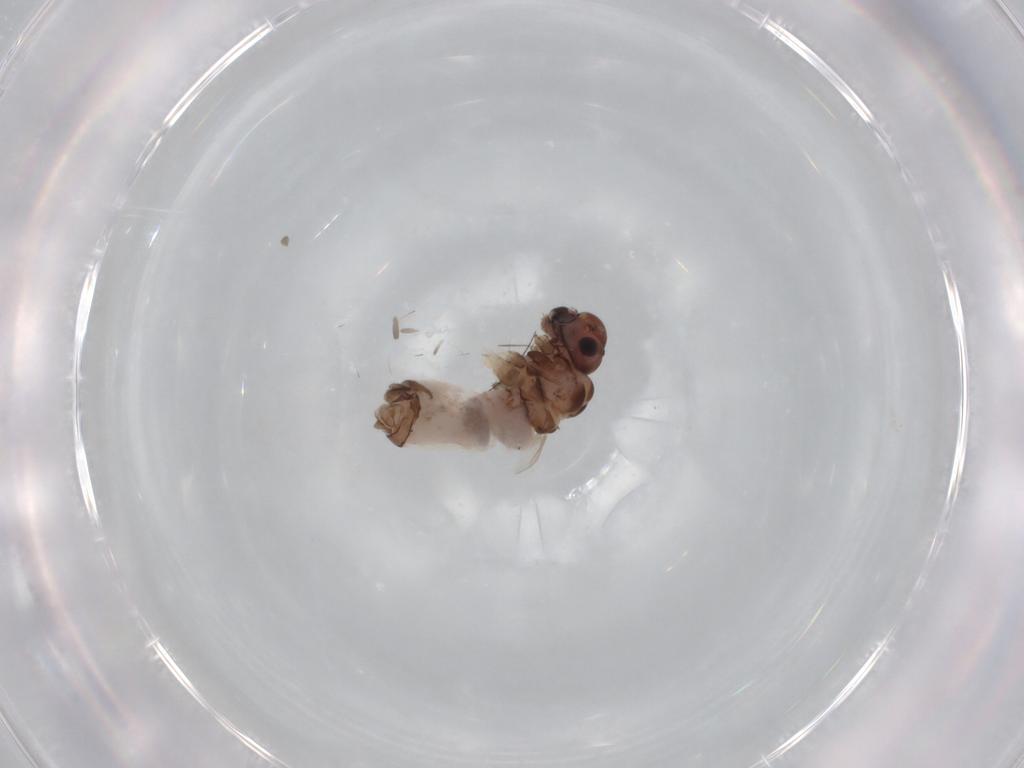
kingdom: Animalia
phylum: Arthropoda
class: Insecta
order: Psocodea
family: Peripsocidae
